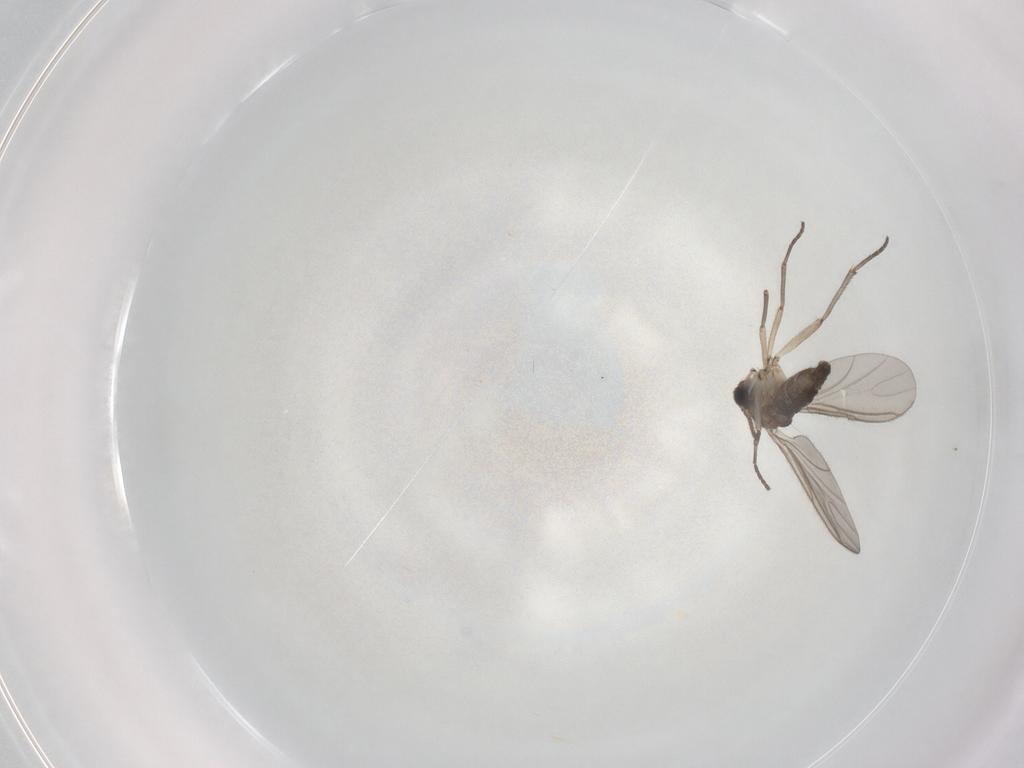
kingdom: Animalia
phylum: Arthropoda
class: Insecta
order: Diptera
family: Sciaridae
